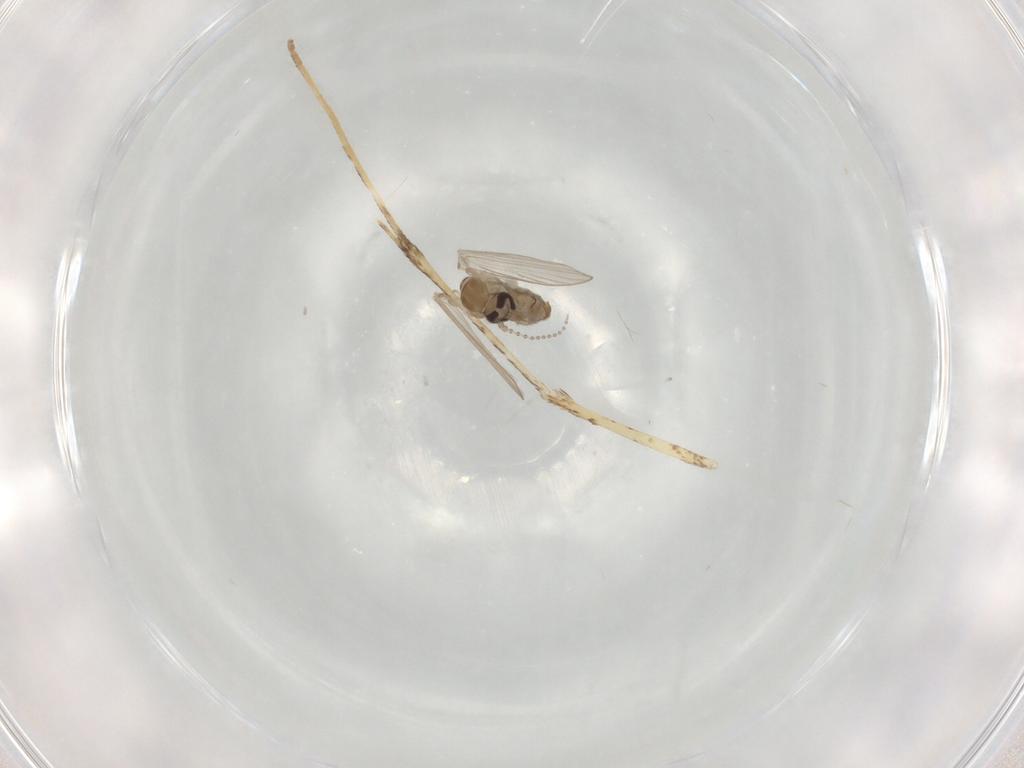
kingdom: Animalia
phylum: Arthropoda
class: Insecta
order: Diptera
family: Psychodidae
